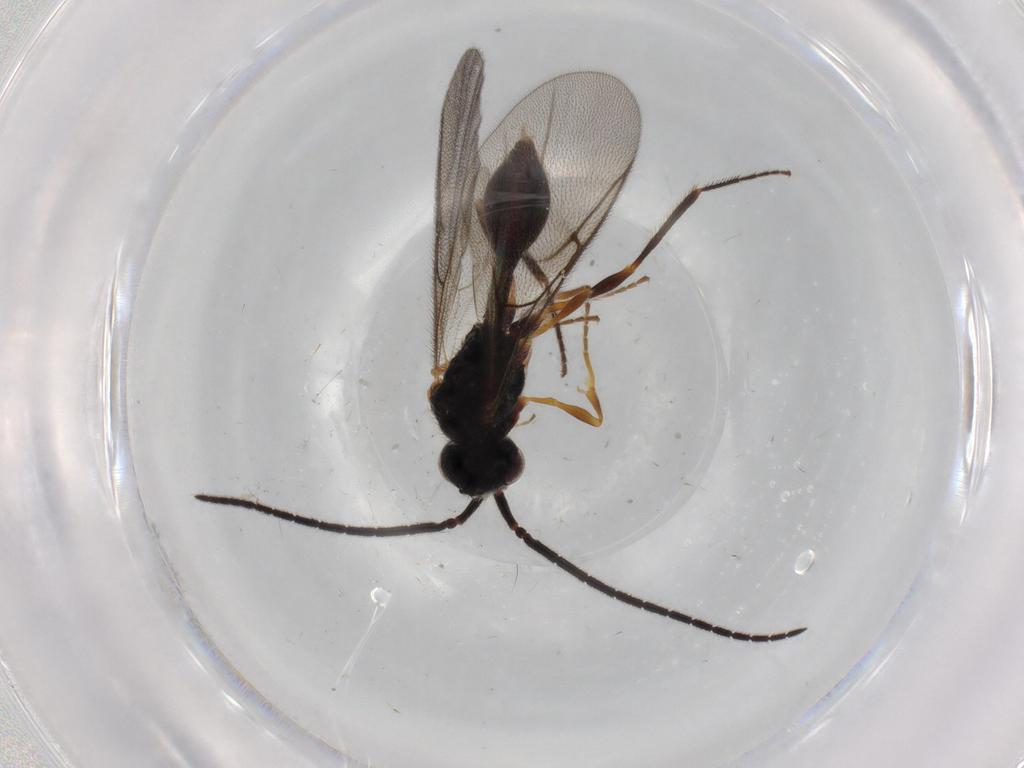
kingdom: Animalia
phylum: Arthropoda
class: Insecta
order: Hymenoptera
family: Diapriidae
